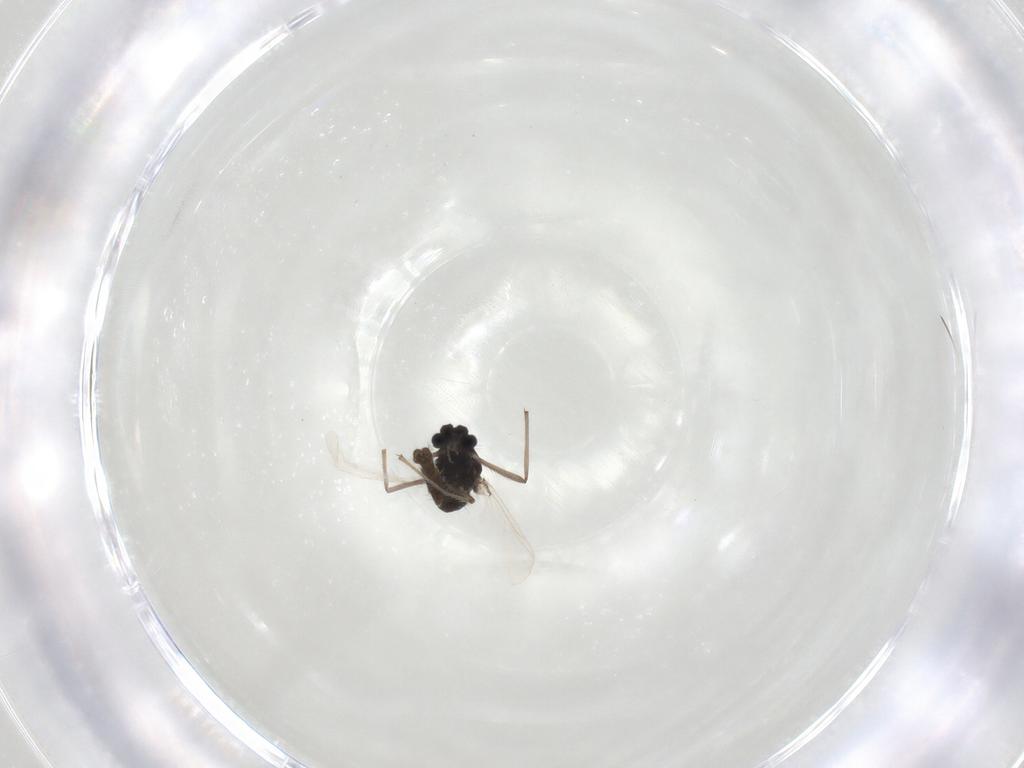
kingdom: Animalia
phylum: Arthropoda
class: Insecta
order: Diptera
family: Chironomidae
